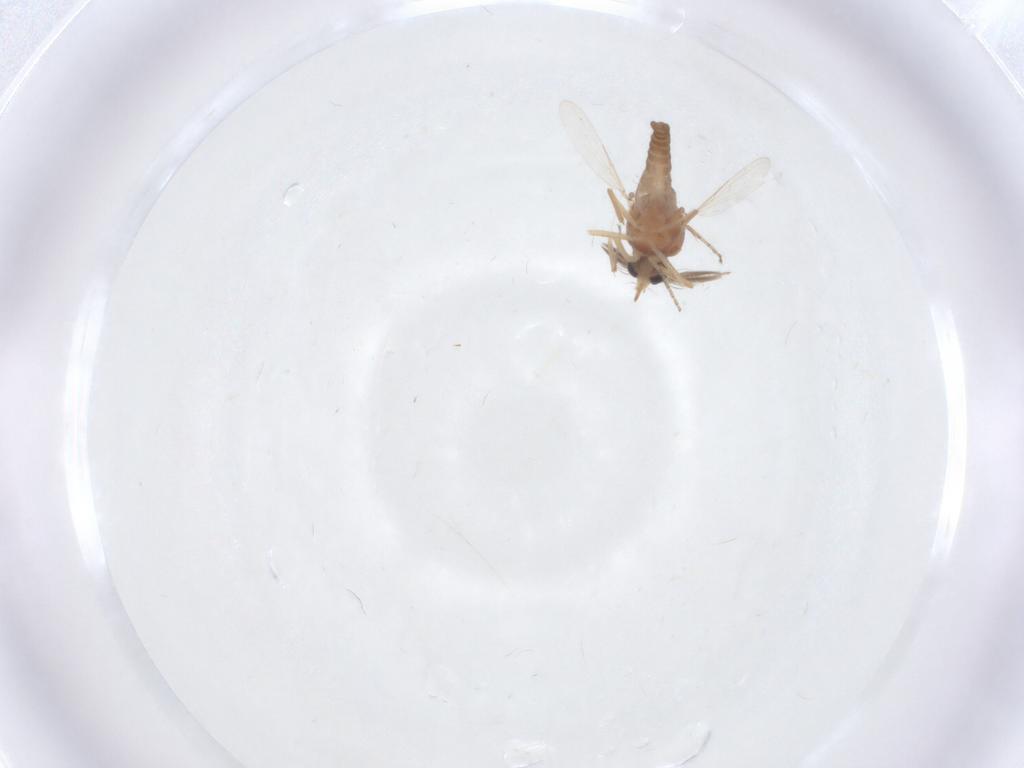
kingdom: Animalia
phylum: Arthropoda
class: Insecta
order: Diptera
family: Ceratopogonidae
